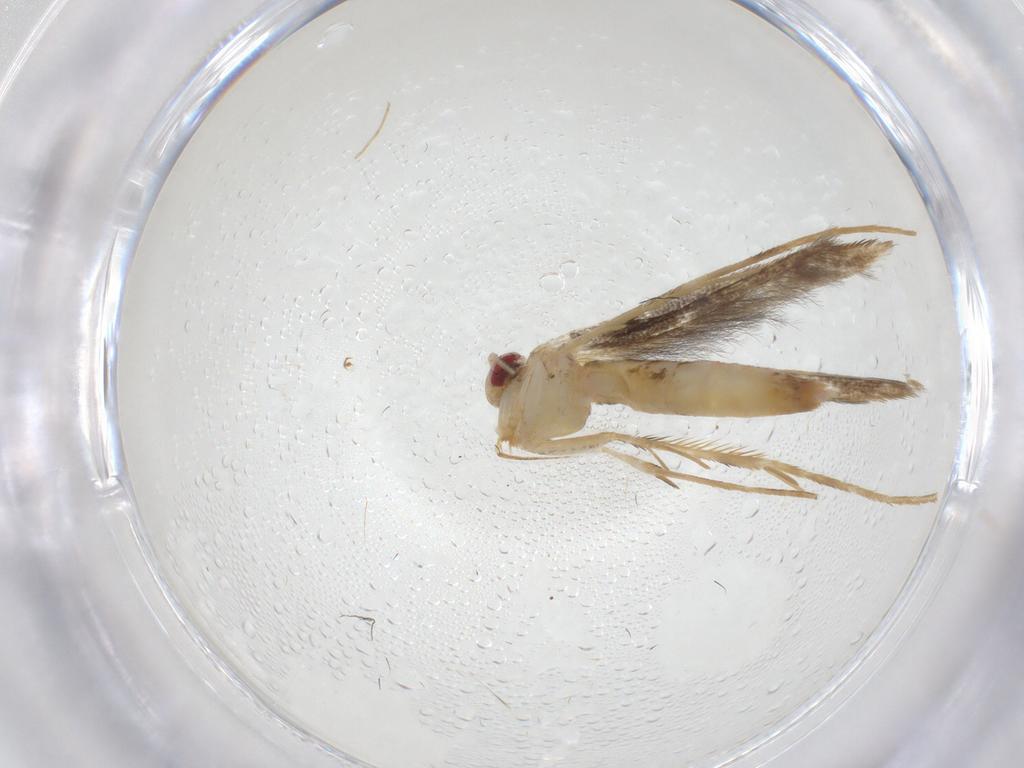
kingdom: Animalia
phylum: Arthropoda
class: Insecta
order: Lepidoptera
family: Gracillariidae
